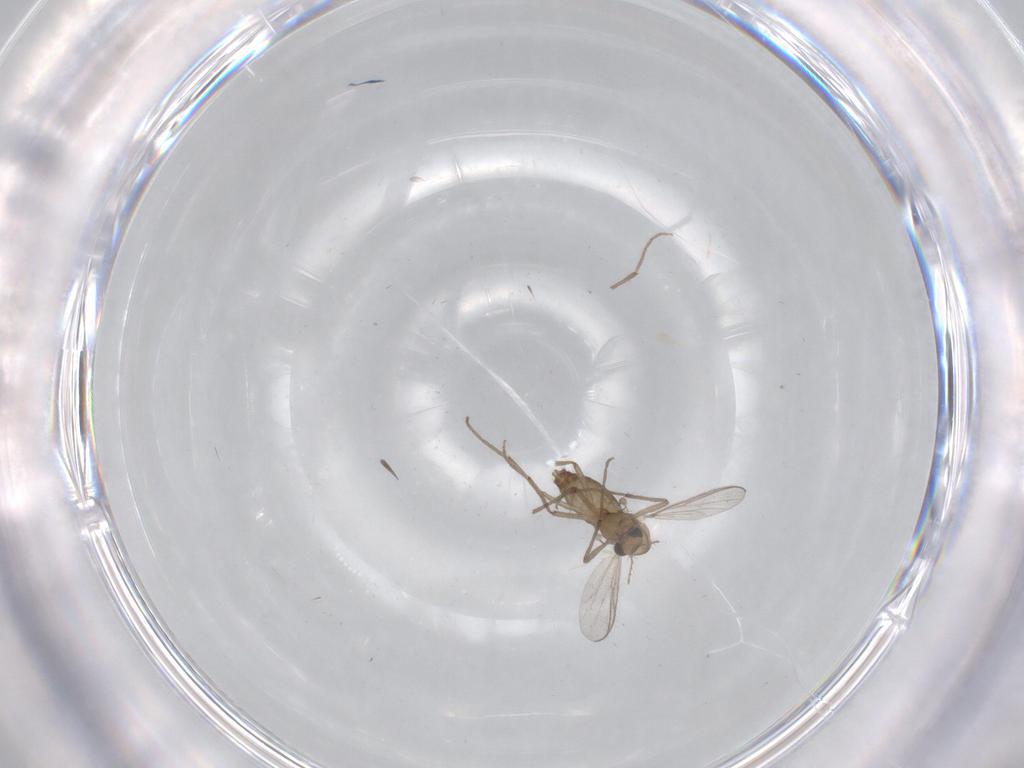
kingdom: Animalia
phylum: Arthropoda
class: Insecta
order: Diptera
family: Chironomidae
